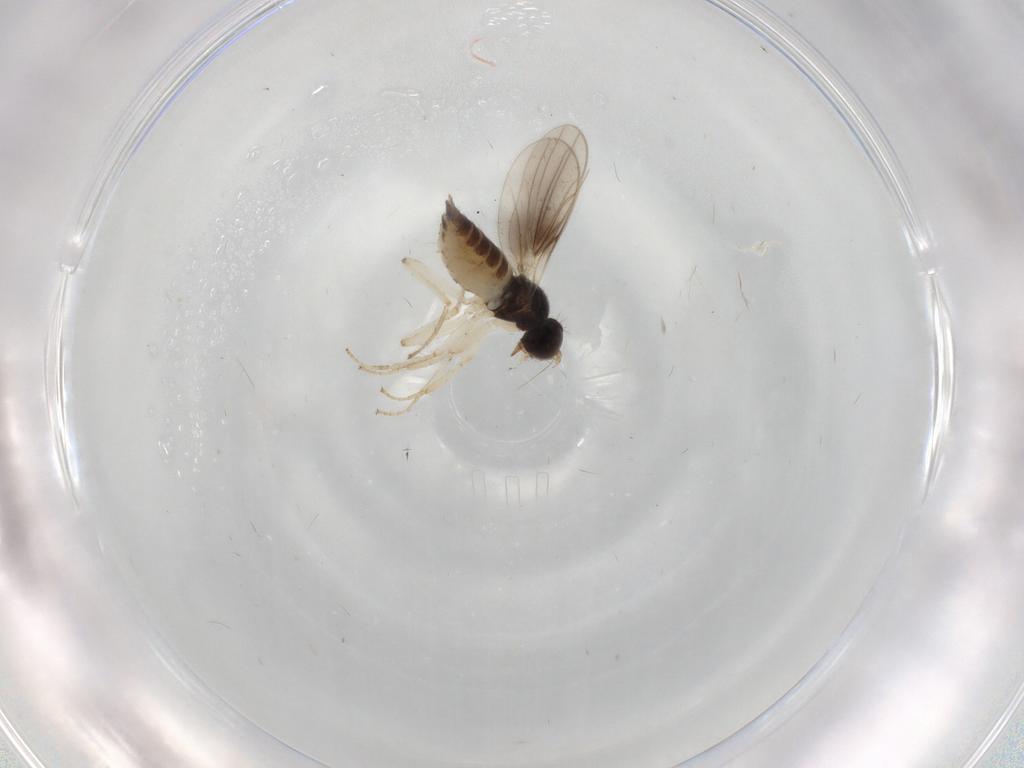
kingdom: Animalia
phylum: Arthropoda
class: Insecta
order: Diptera
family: Hybotidae
